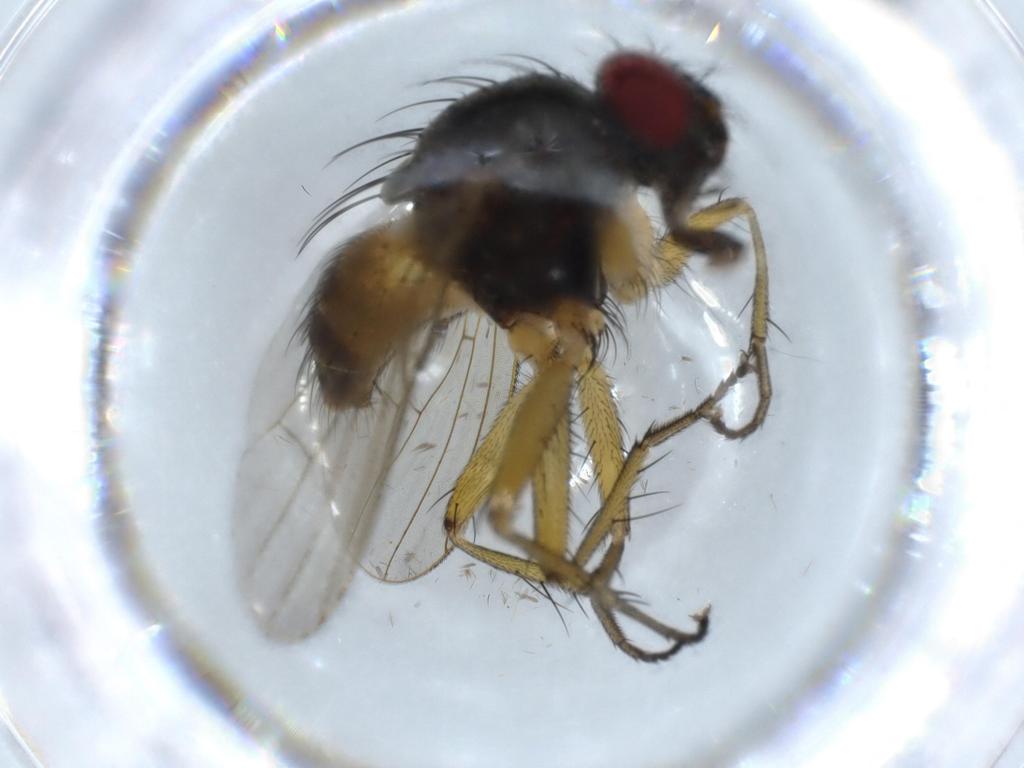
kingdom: Animalia
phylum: Arthropoda
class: Insecta
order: Diptera
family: Muscidae
